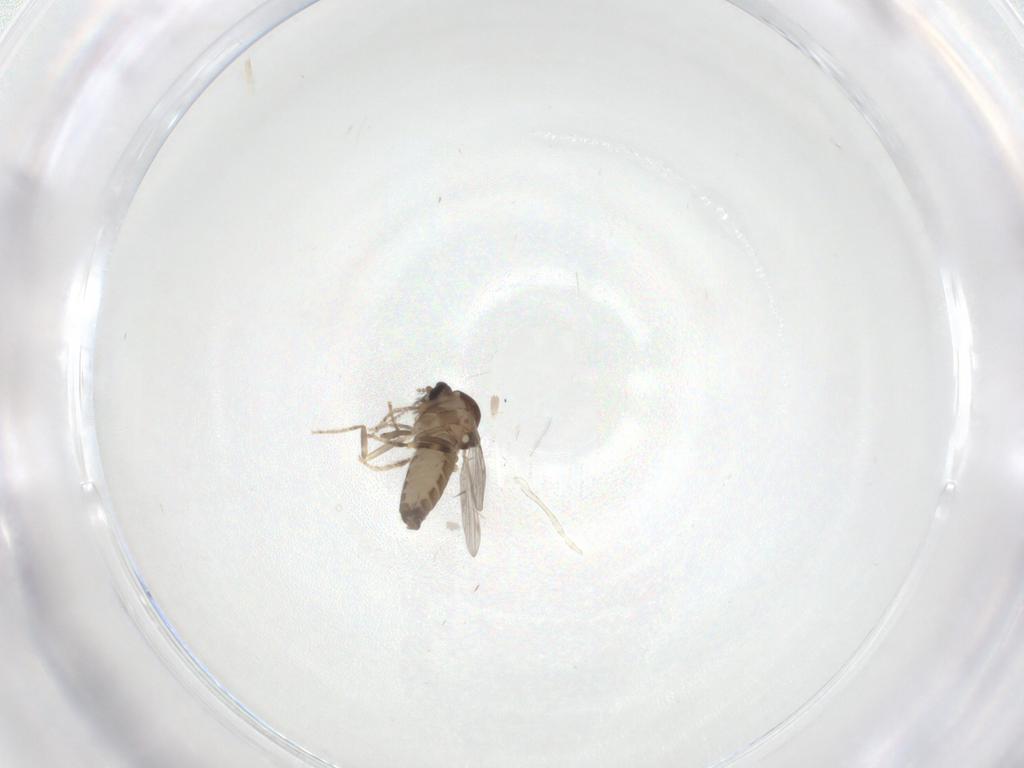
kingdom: Animalia
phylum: Arthropoda
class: Insecta
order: Diptera
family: Ceratopogonidae
